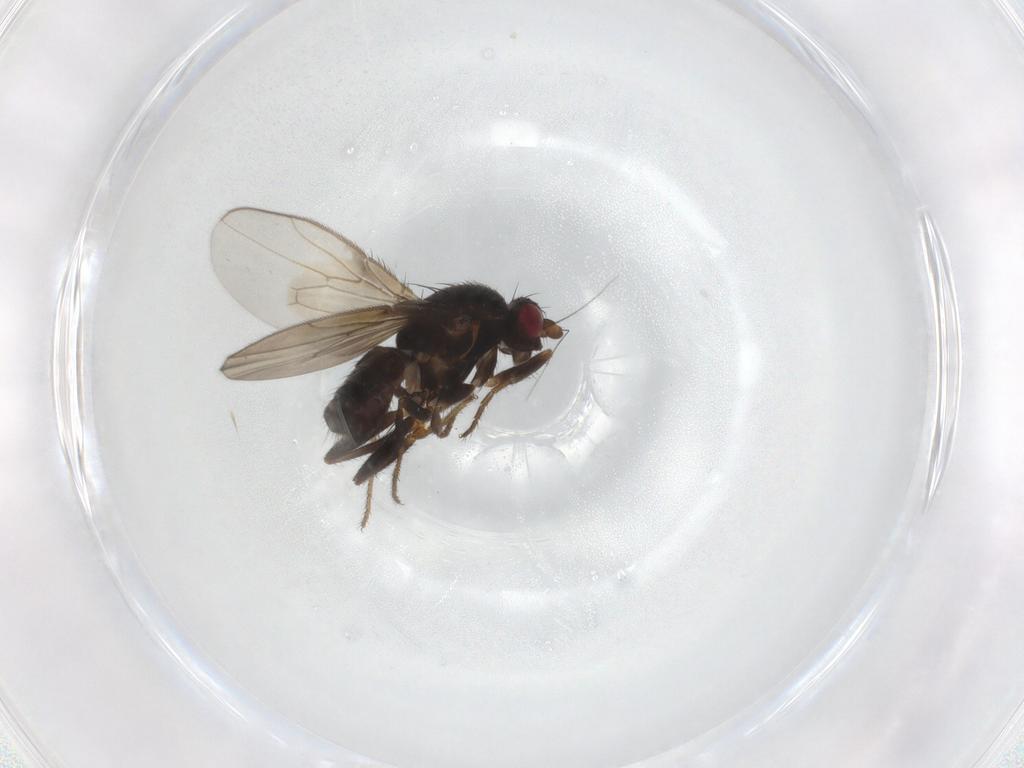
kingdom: Animalia
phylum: Arthropoda
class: Insecta
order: Diptera
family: Sphaeroceridae
